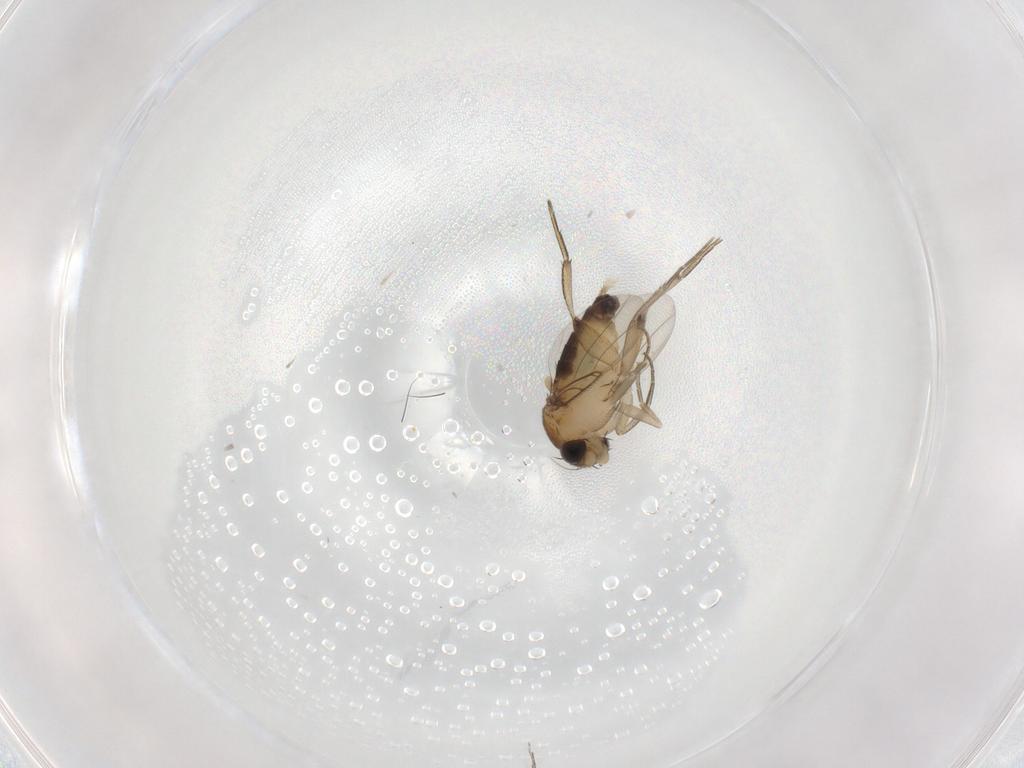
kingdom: Animalia
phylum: Arthropoda
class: Insecta
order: Diptera
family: Phoridae
